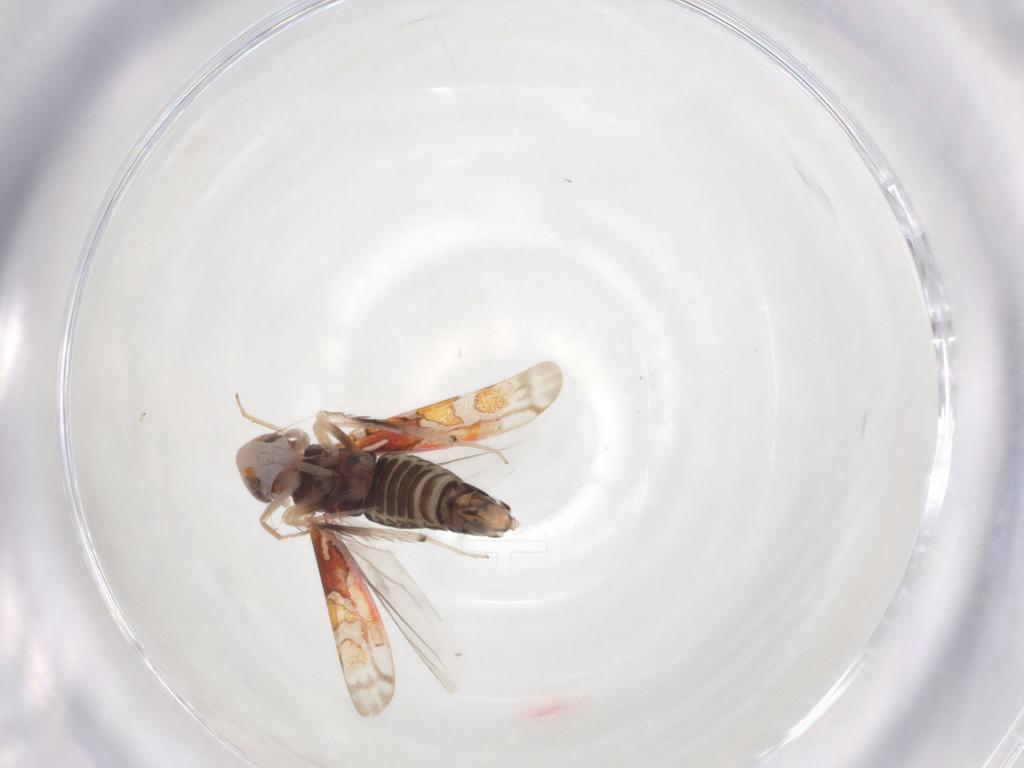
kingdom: Animalia
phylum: Arthropoda
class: Insecta
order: Hemiptera
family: Cicadellidae
